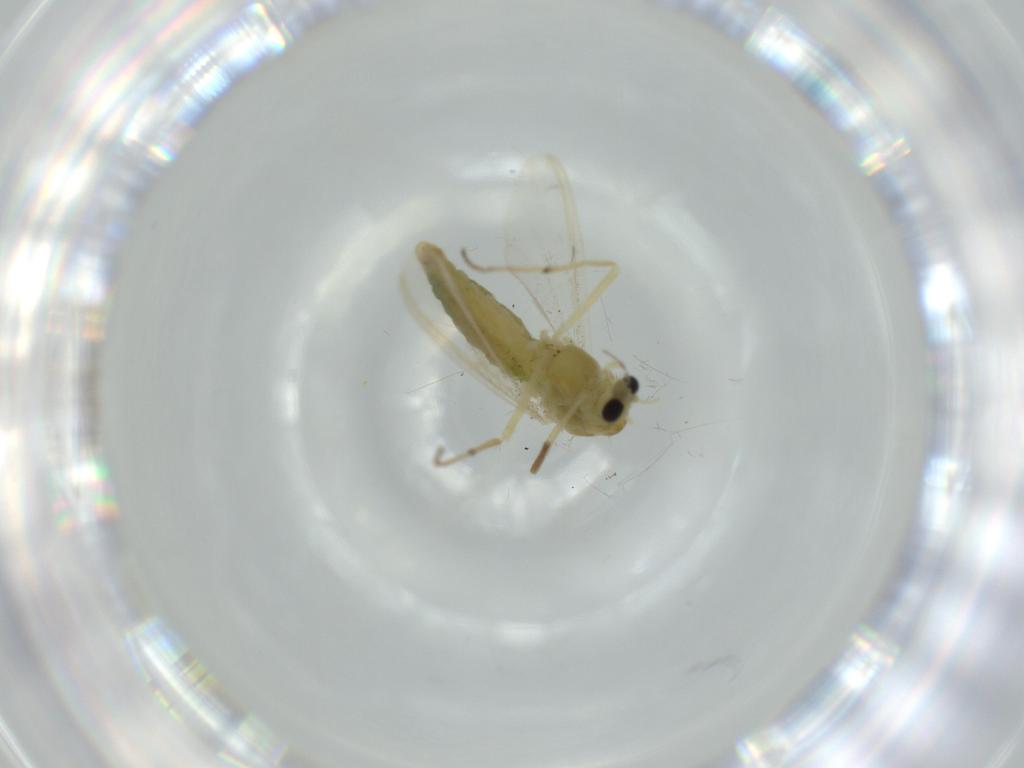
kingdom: Animalia
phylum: Arthropoda
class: Insecta
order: Diptera
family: Chironomidae
